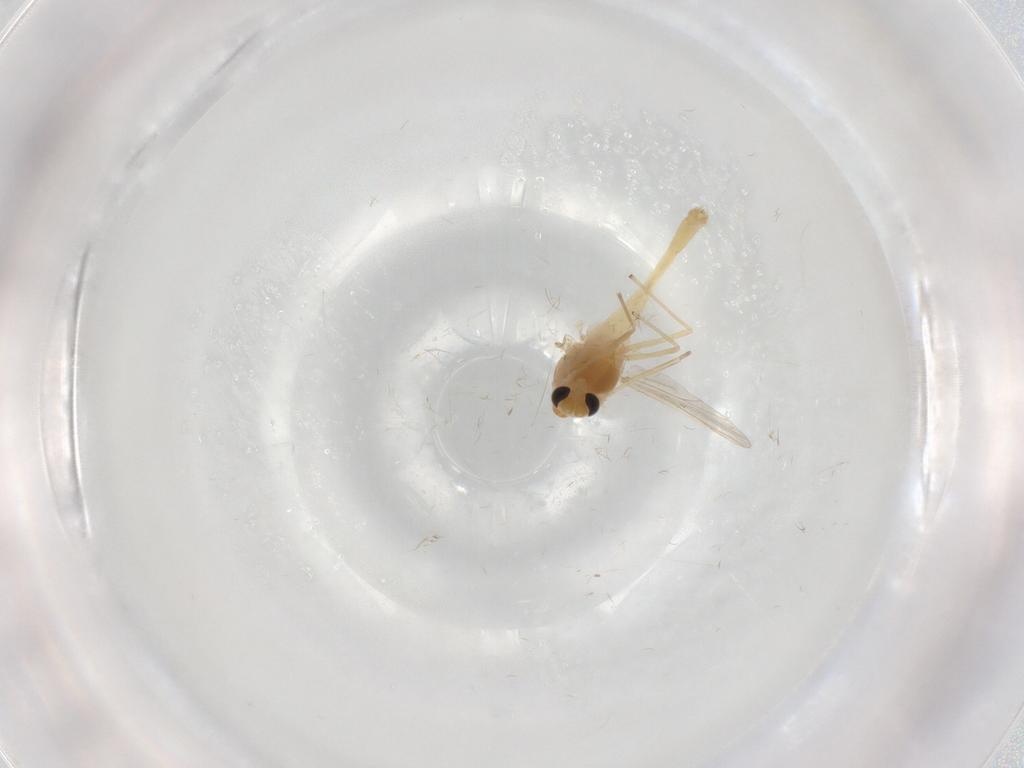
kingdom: Animalia
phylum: Arthropoda
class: Insecta
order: Diptera
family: Chironomidae
